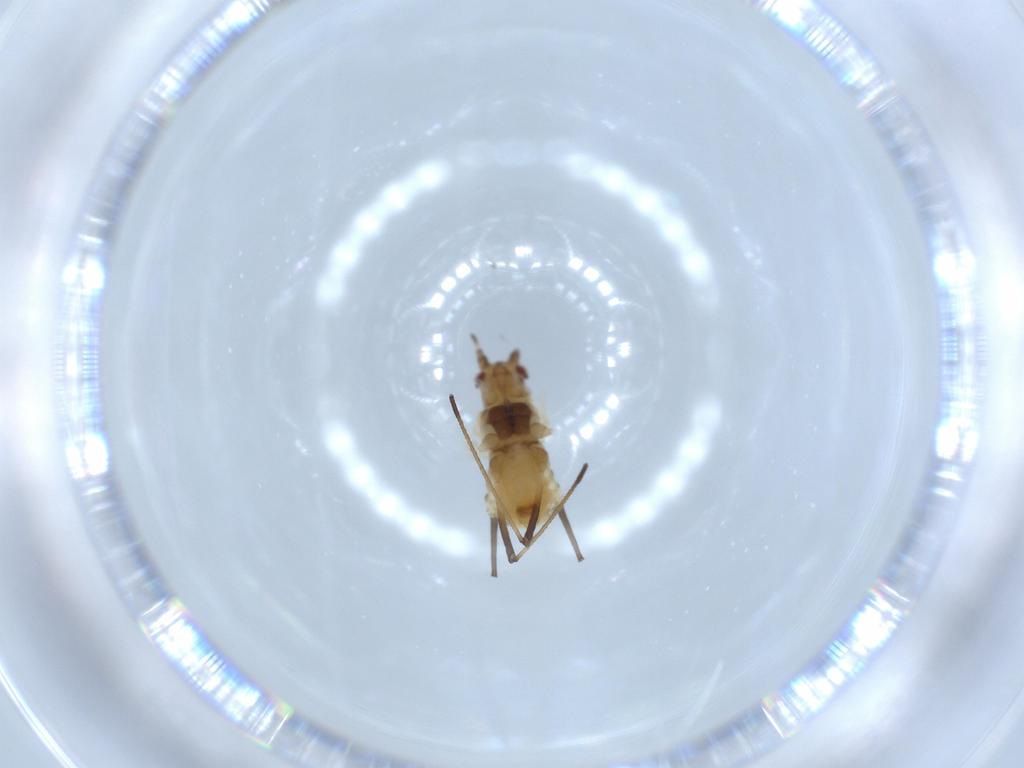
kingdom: Animalia
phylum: Arthropoda
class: Insecta
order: Hemiptera
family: Aphididae
